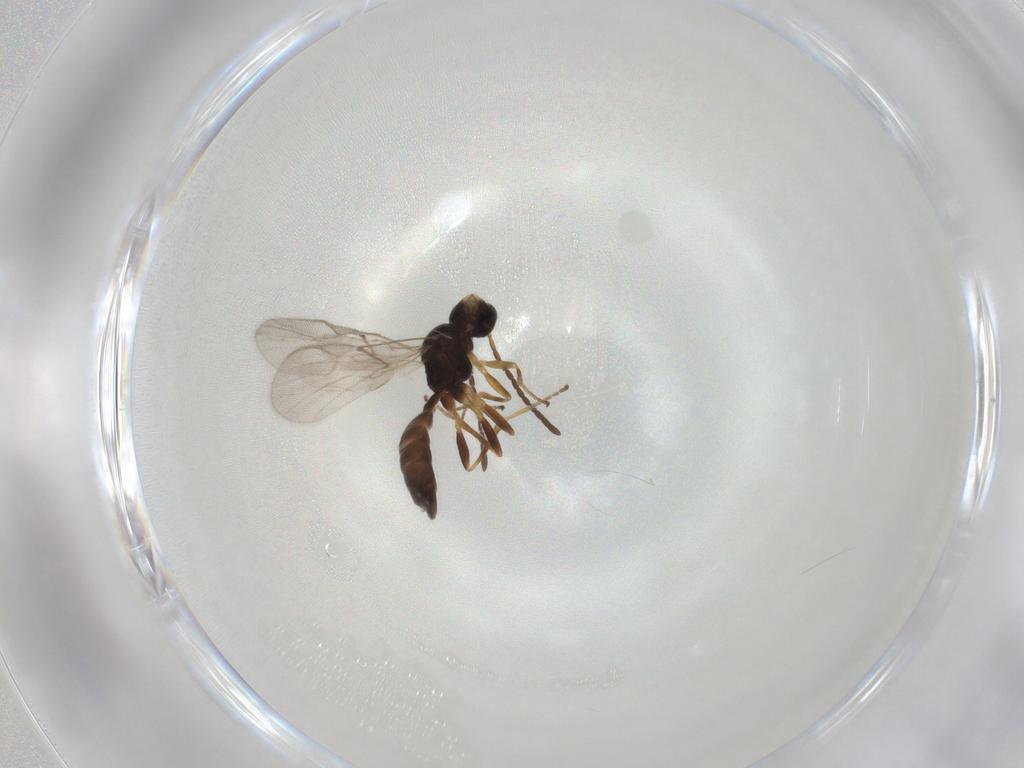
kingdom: Animalia
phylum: Arthropoda
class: Insecta
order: Hymenoptera
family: Braconidae
